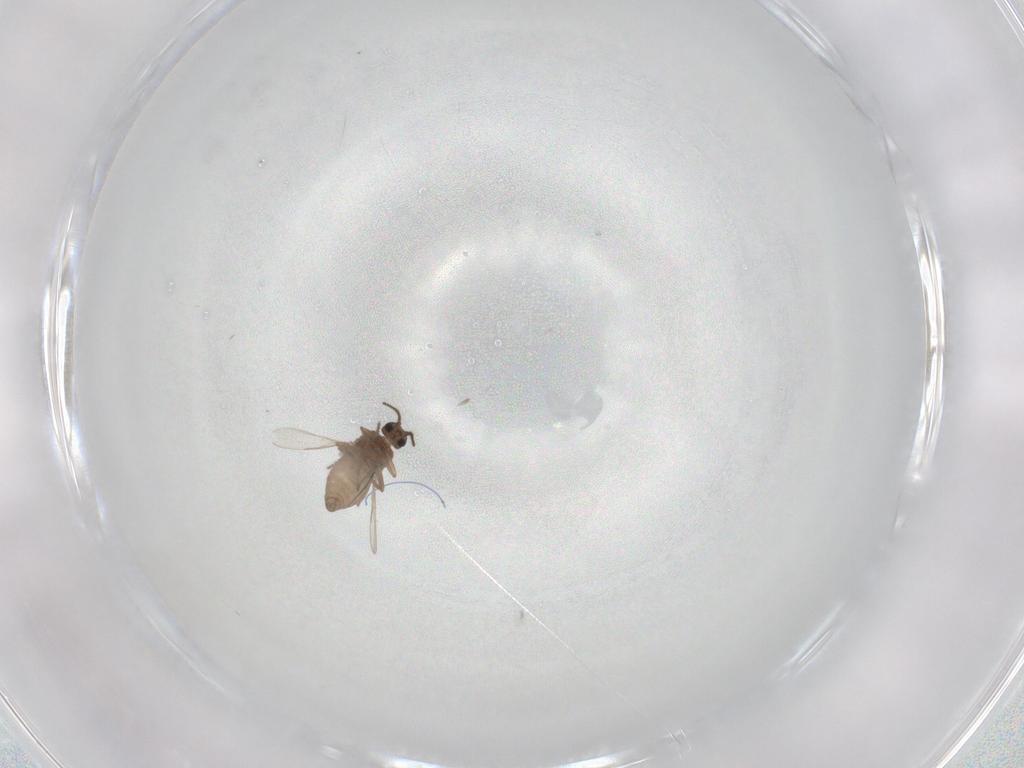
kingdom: Animalia
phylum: Arthropoda
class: Insecta
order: Diptera
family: Ceratopogonidae
